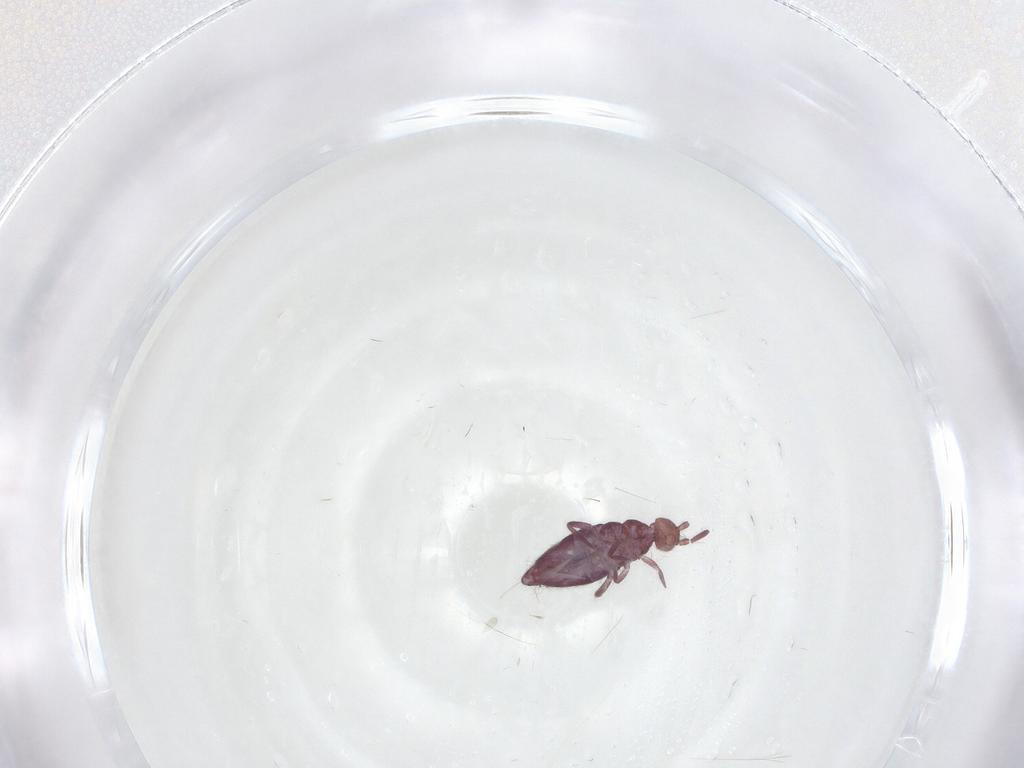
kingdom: Animalia
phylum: Arthropoda
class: Collembola
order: Entomobryomorpha
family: Entomobryidae
